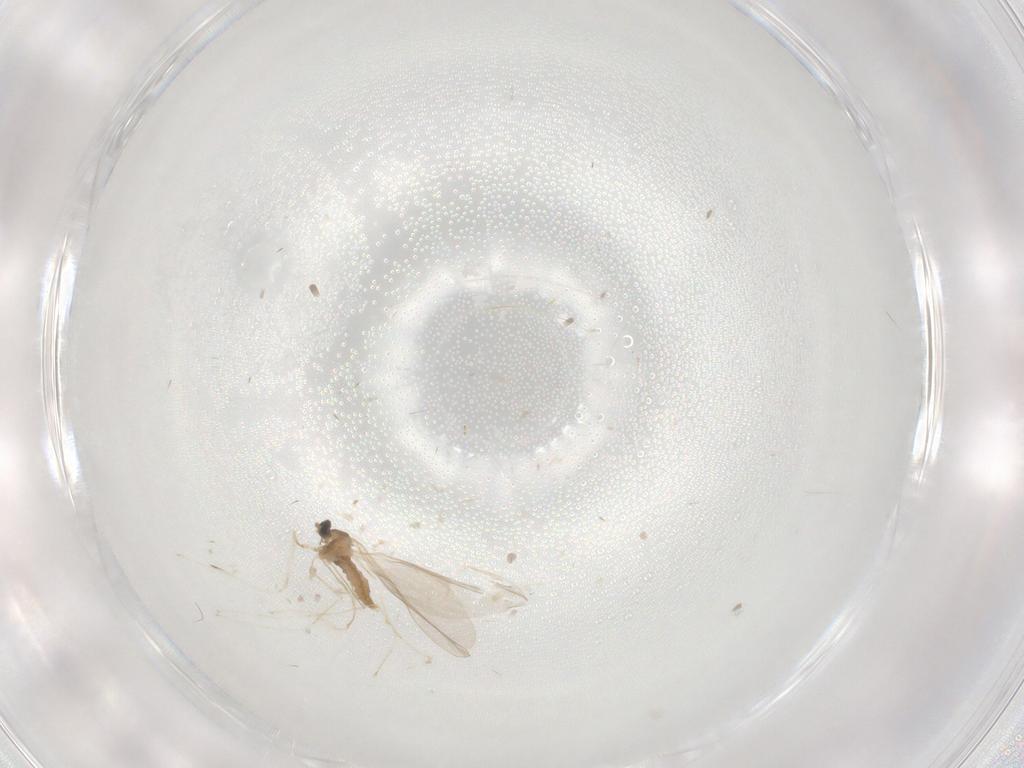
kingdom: Animalia
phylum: Arthropoda
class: Insecta
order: Diptera
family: Cecidomyiidae
